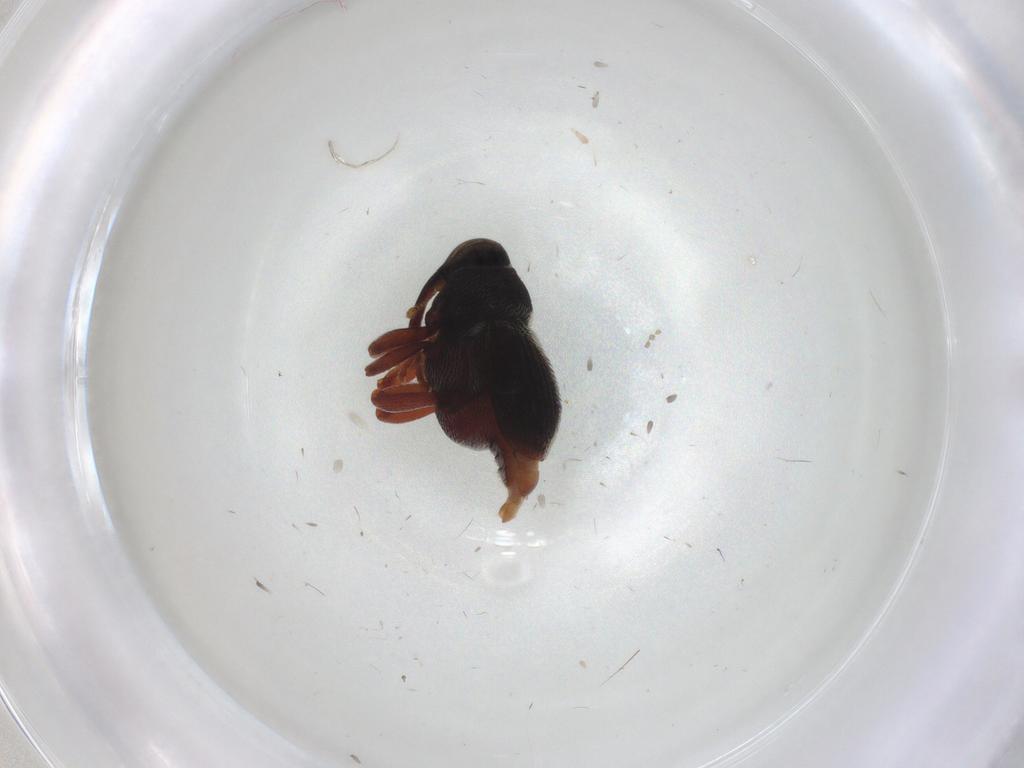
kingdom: Animalia
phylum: Arthropoda
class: Insecta
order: Coleoptera
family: Curculionidae
